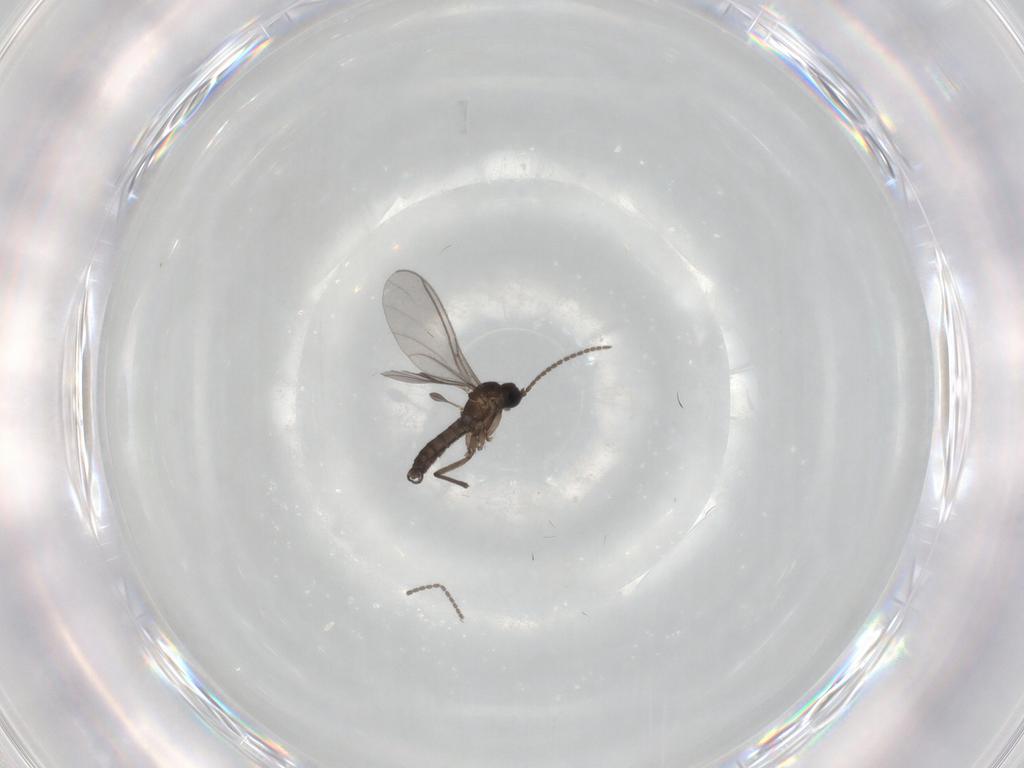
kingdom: Animalia
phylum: Arthropoda
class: Insecta
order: Diptera
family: Sciaridae
